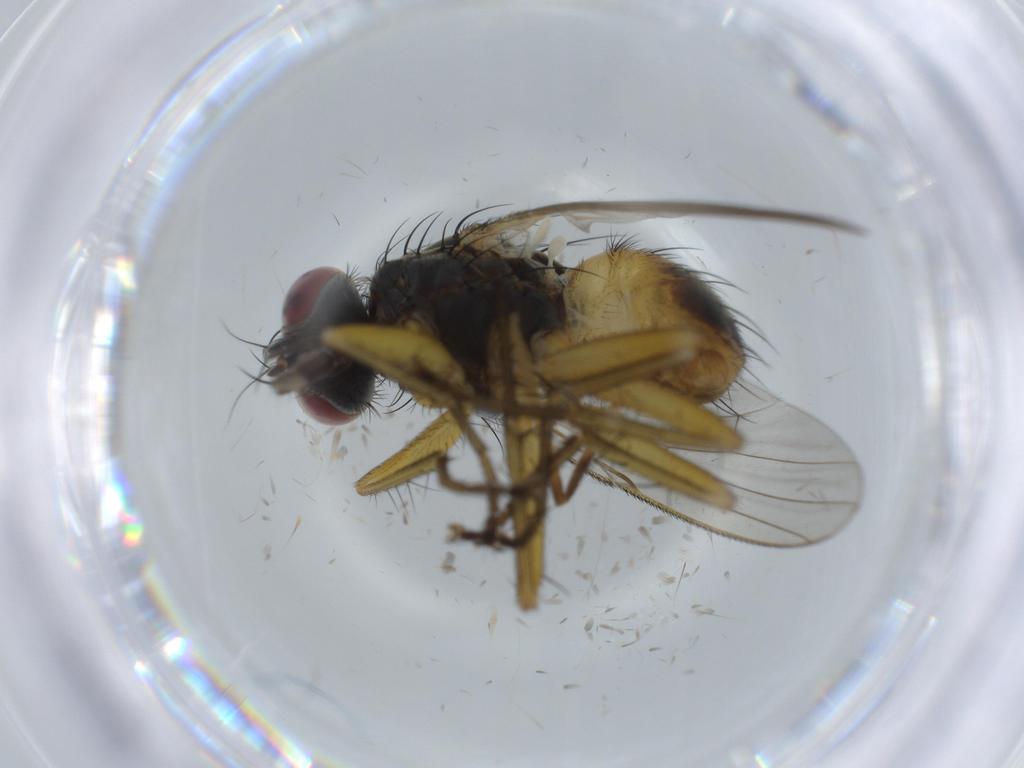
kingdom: Animalia
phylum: Arthropoda
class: Insecta
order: Diptera
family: Muscidae
